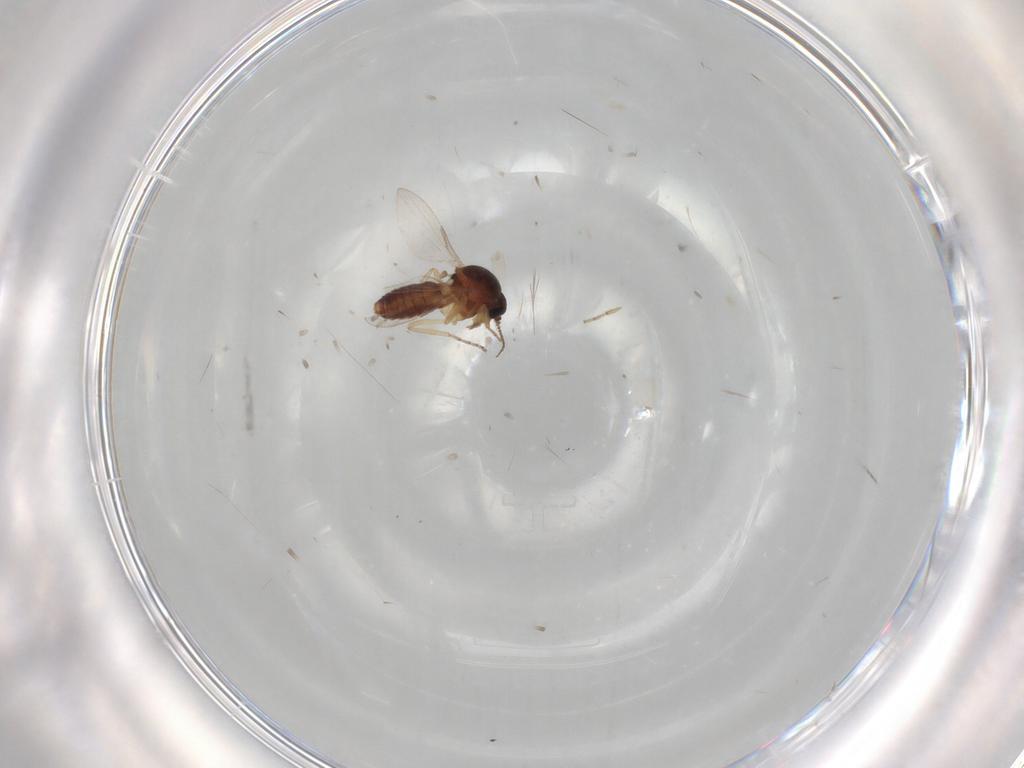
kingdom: Animalia
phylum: Arthropoda
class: Insecta
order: Diptera
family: Ceratopogonidae
